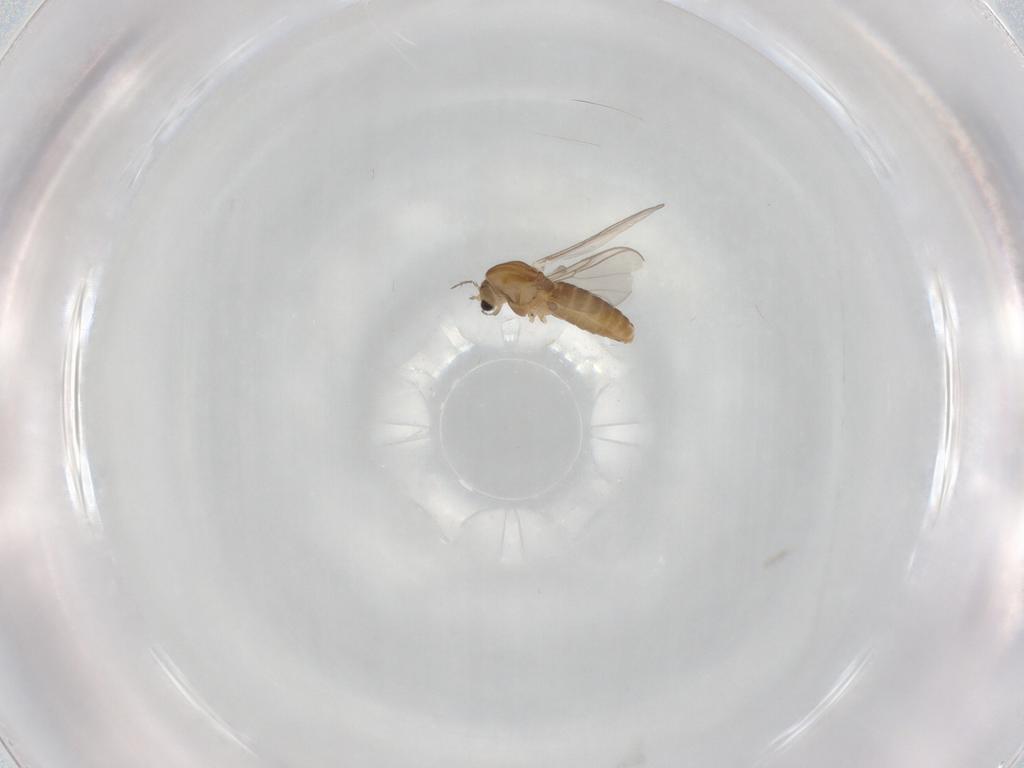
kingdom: Animalia
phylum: Arthropoda
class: Insecta
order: Diptera
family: Chironomidae
